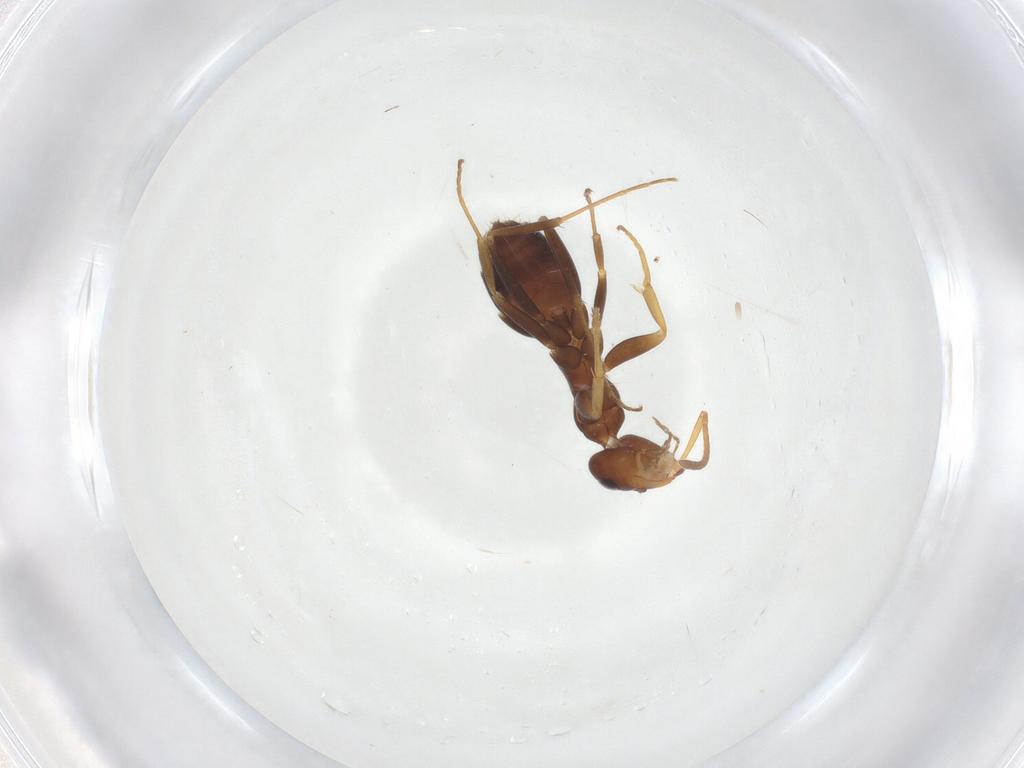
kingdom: Animalia
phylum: Arthropoda
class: Insecta
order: Hymenoptera
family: Formicidae
